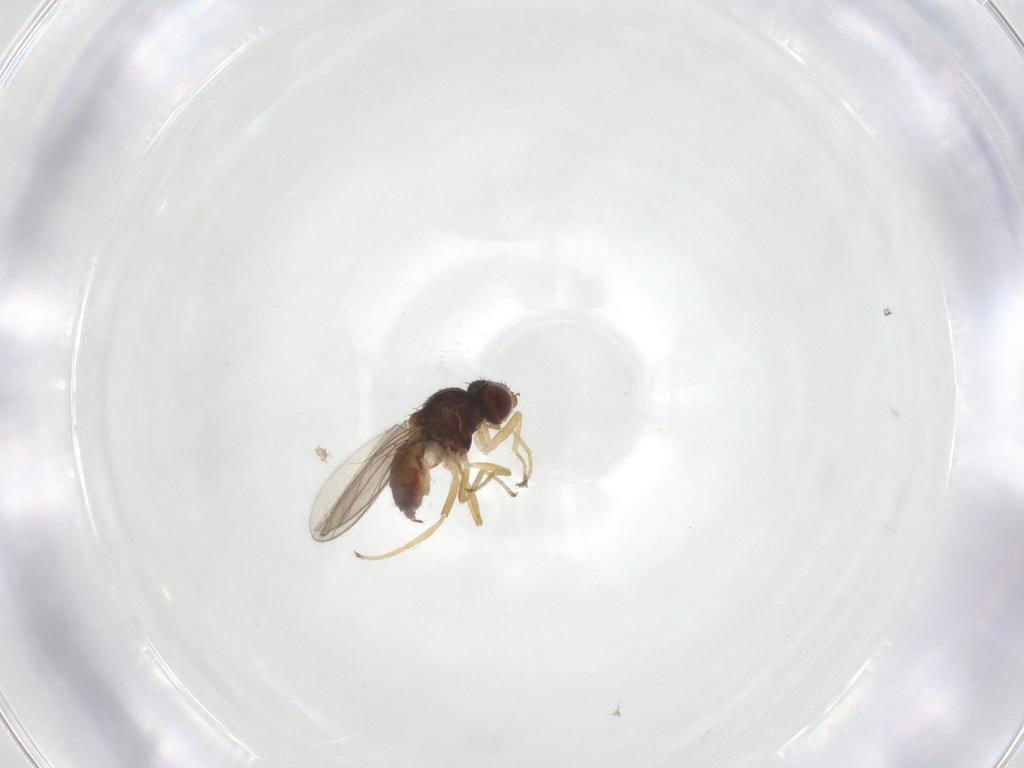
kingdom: Animalia
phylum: Arthropoda
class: Insecta
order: Diptera
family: Chloropidae
